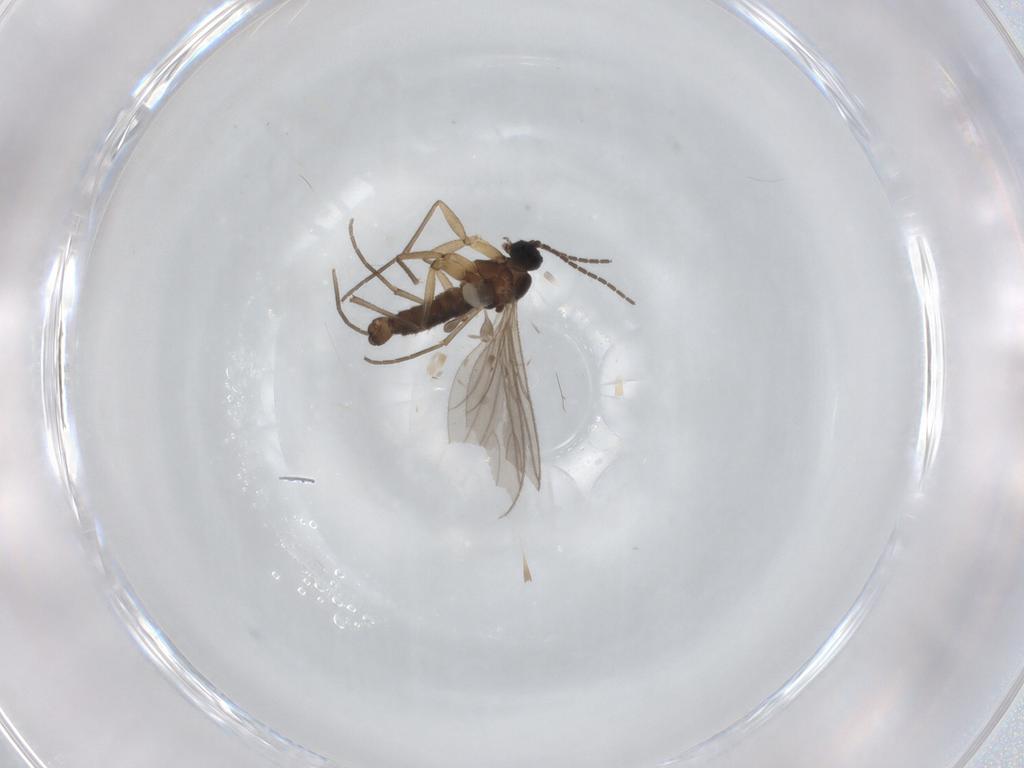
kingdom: Animalia
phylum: Arthropoda
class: Insecta
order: Diptera
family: Sciaridae
